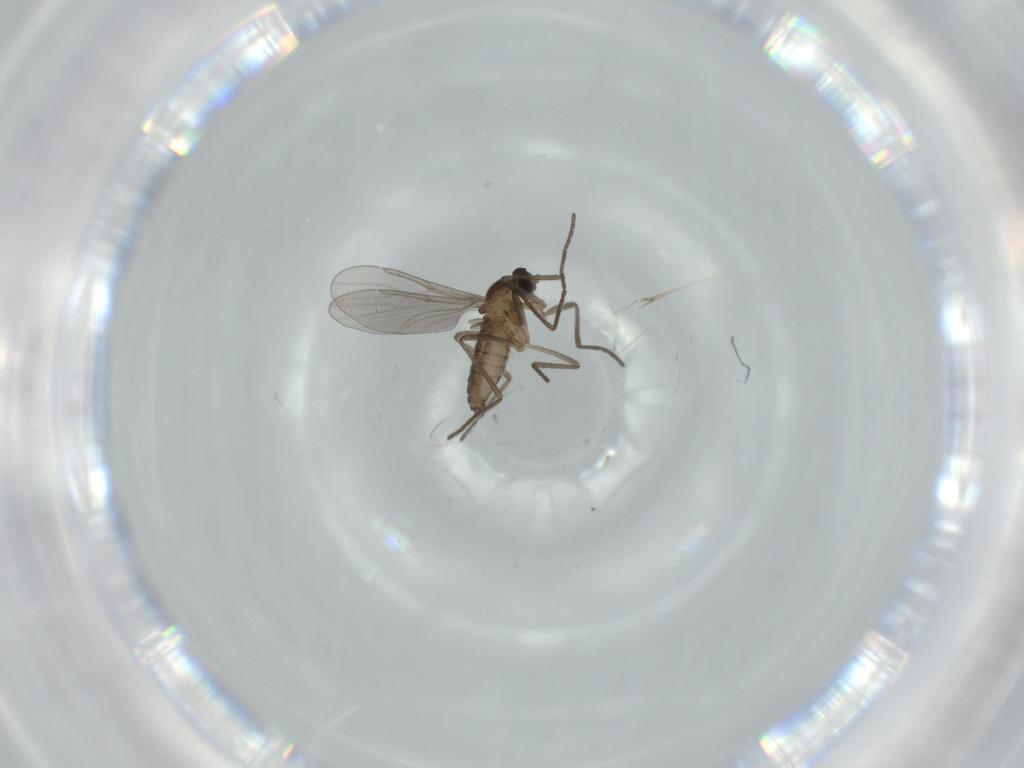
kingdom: Animalia
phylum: Arthropoda
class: Insecta
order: Diptera
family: Sciaridae
